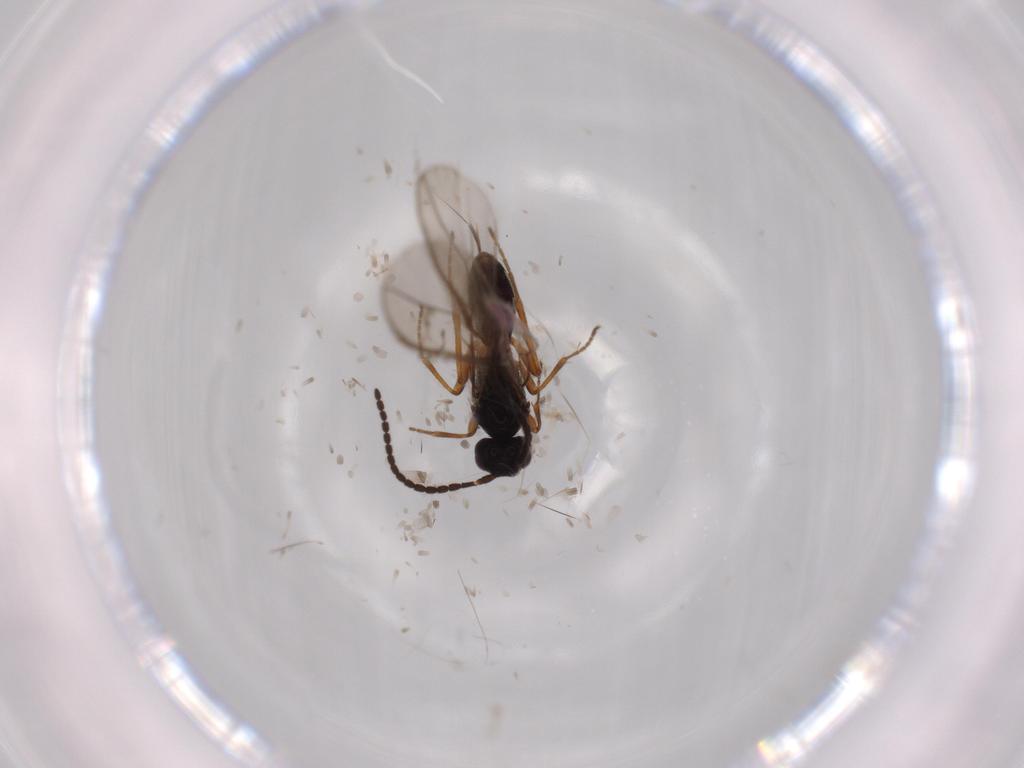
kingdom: Animalia
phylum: Arthropoda
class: Insecta
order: Hymenoptera
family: Braconidae
